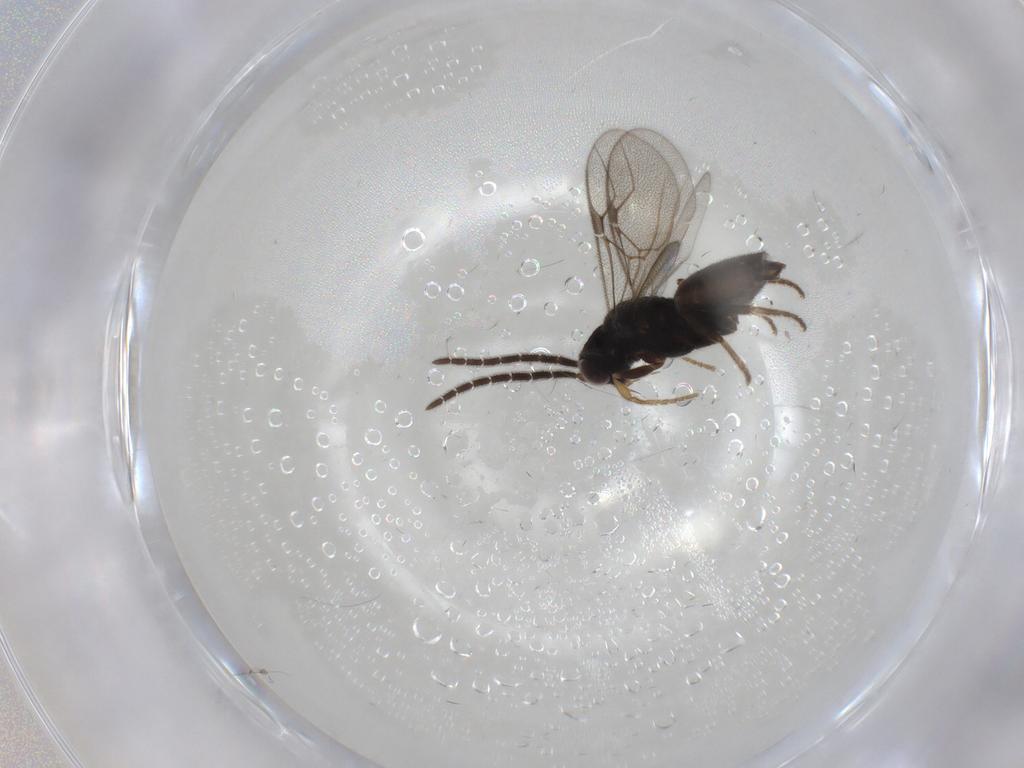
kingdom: Animalia
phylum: Arthropoda
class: Insecta
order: Hymenoptera
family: Dryinidae
